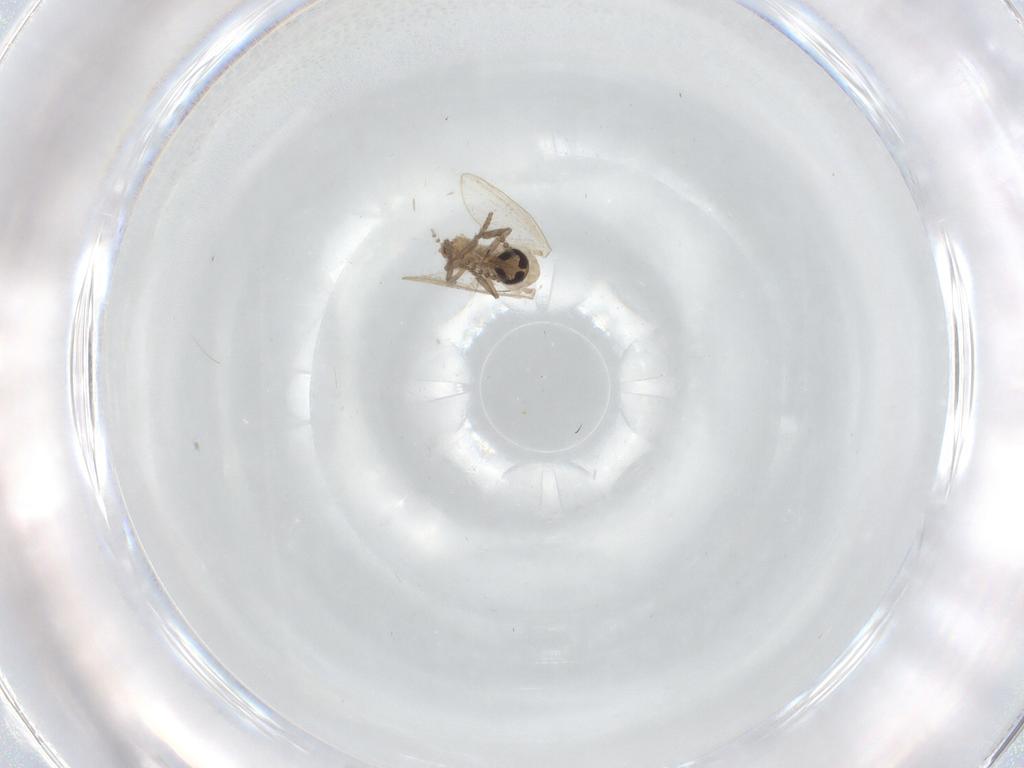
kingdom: Animalia
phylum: Arthropoda
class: Insecta
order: Diptera
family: Psychodidae
